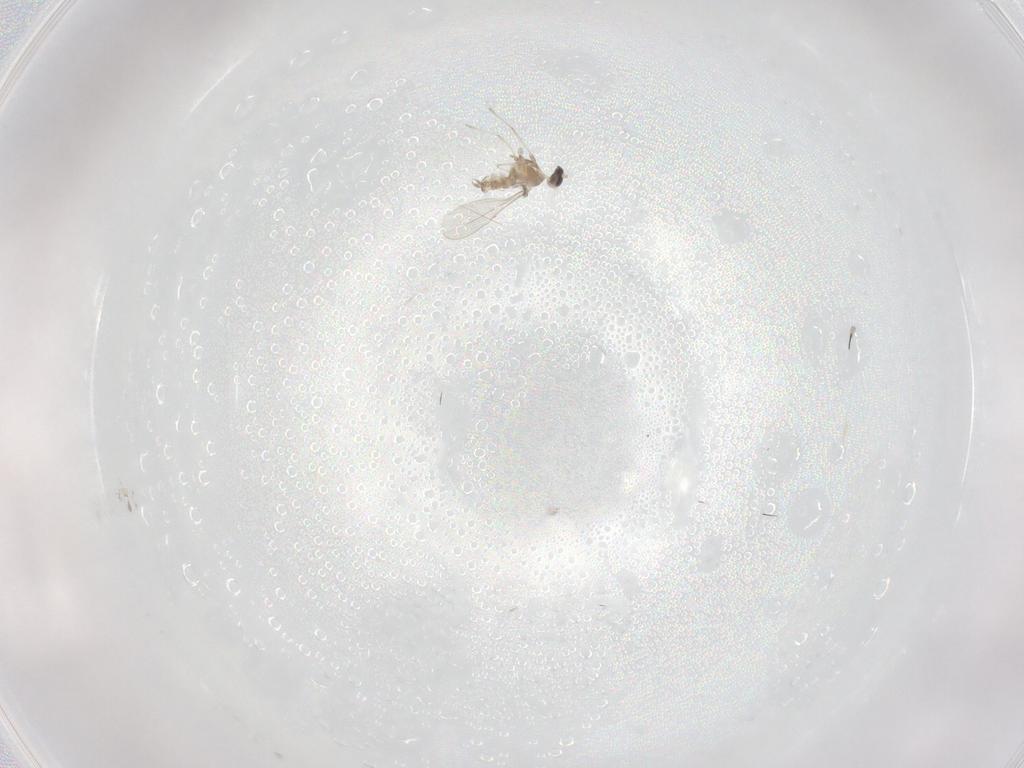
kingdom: Animalia
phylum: Arthropoda
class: Insecta
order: Diptera
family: Cecidomyiidae
